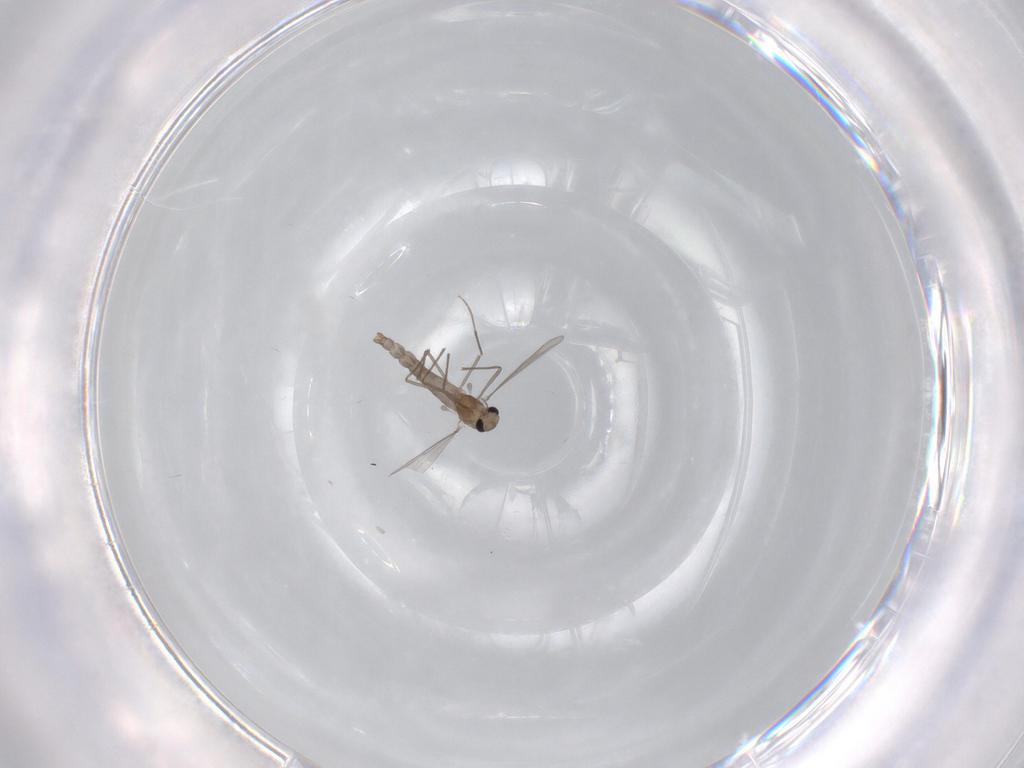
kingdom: Animalia
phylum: Arthropoda
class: Insecta
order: Diptera
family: Chironomidae
